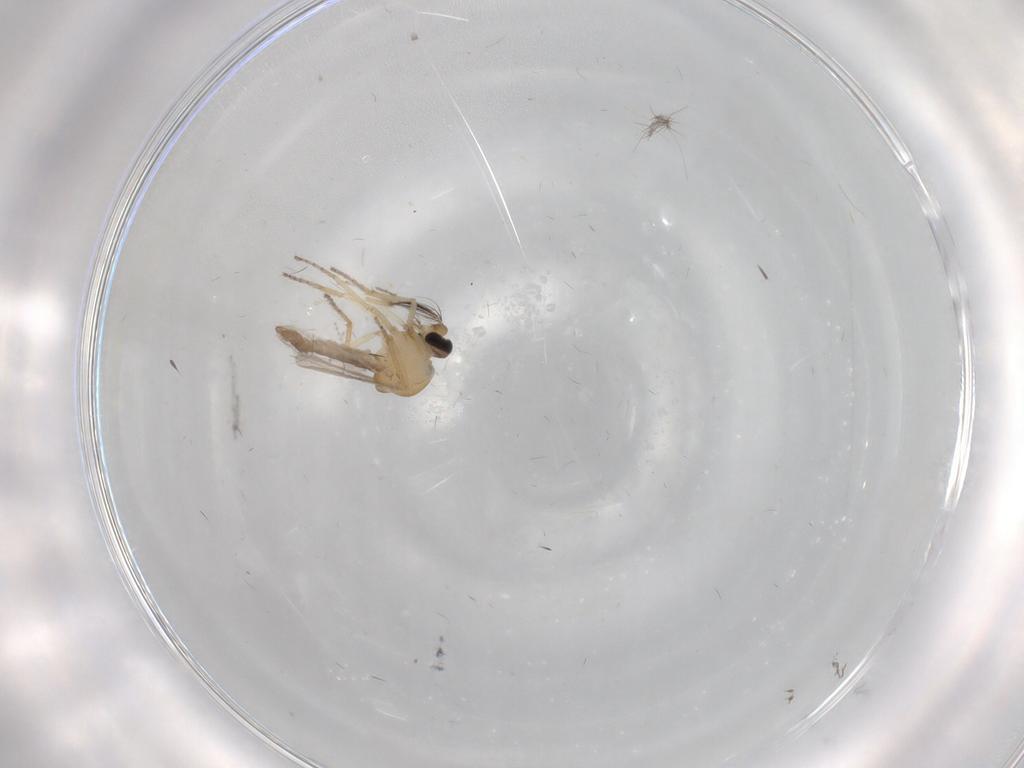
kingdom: Animalia
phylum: Arthropoda
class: Insecta
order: Diptera
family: Ceratopogonidae
